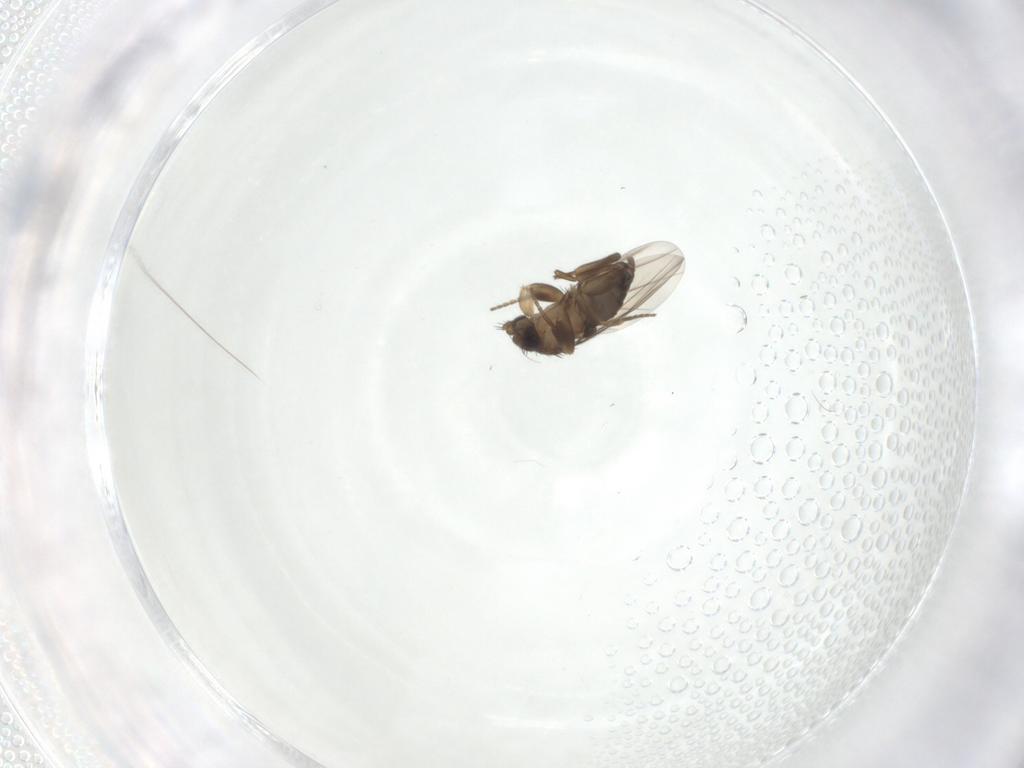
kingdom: Animalia
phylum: Arthropoda
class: Insecta
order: Diptera
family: Phoridae
